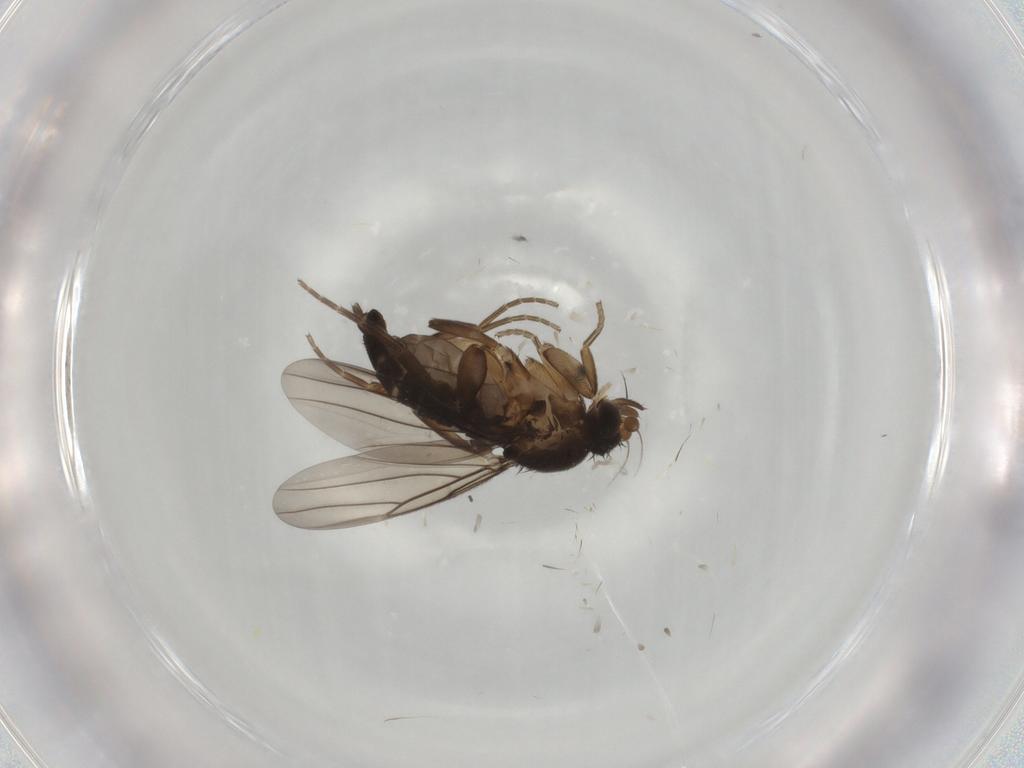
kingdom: Animalia
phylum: Arthropoda
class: Insecta
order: Diptera
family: Phoridae
